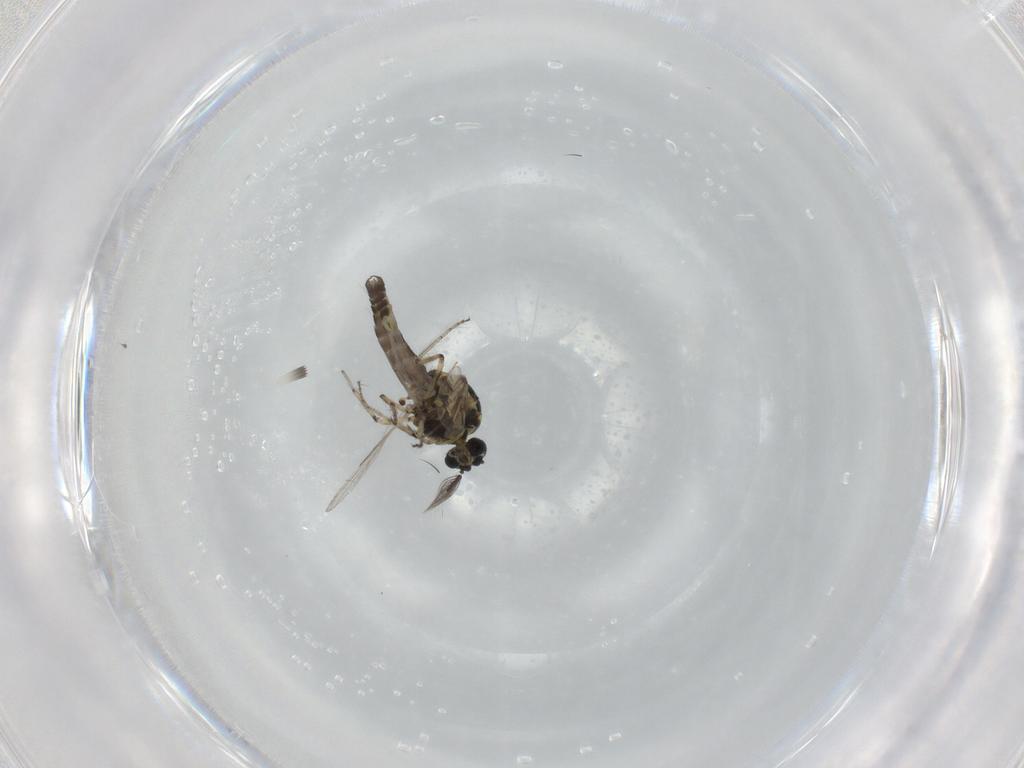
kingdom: Animalia
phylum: Arthropoda
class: Insecta
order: Diptera
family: Ceratopogonidae
